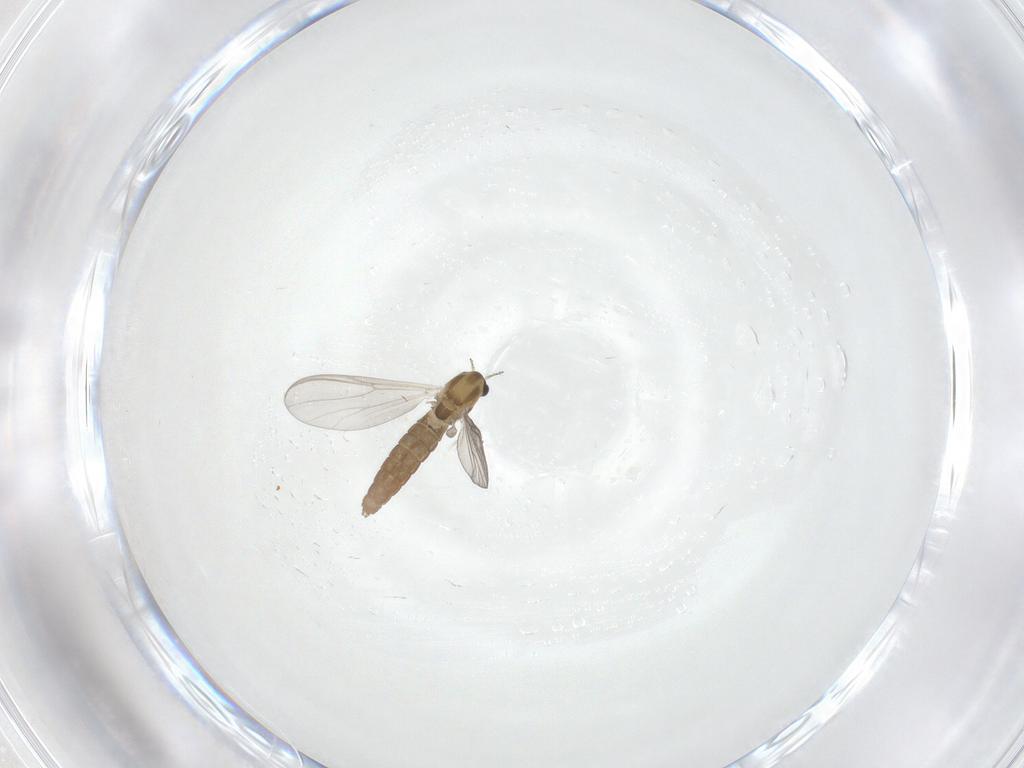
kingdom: Animalia
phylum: Arthropoda
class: Insecta
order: Diptera
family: Chironomidae
